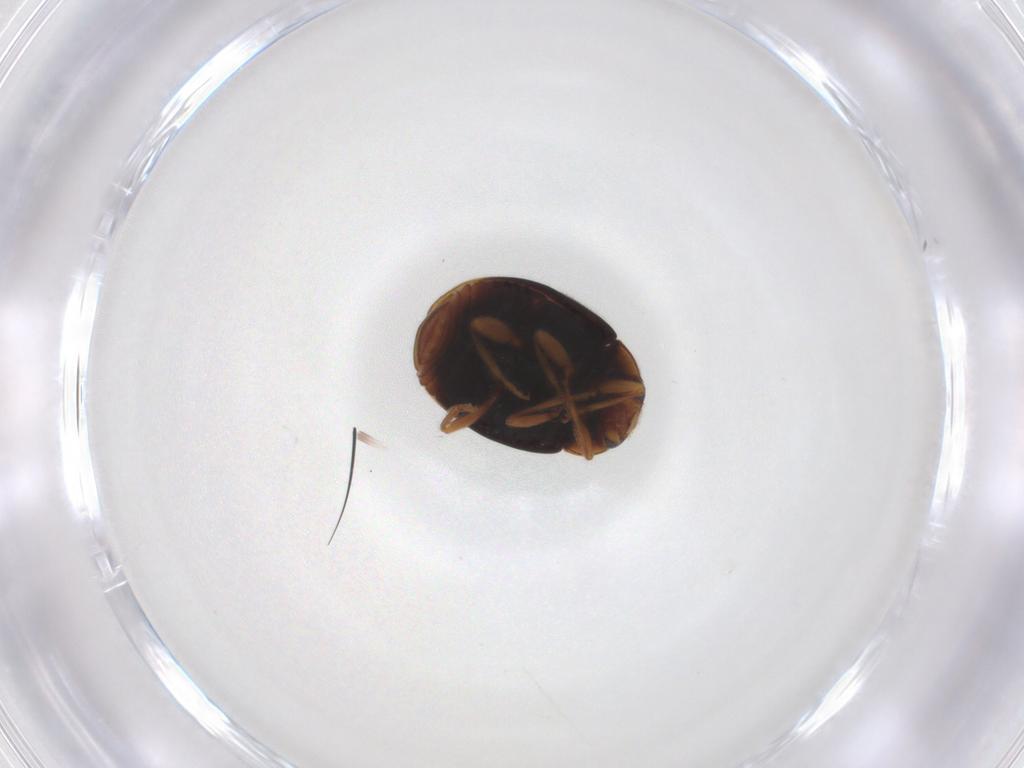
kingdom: Animalia
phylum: Arthropoda
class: Insecta
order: Coleoptera
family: Coccinellidae
